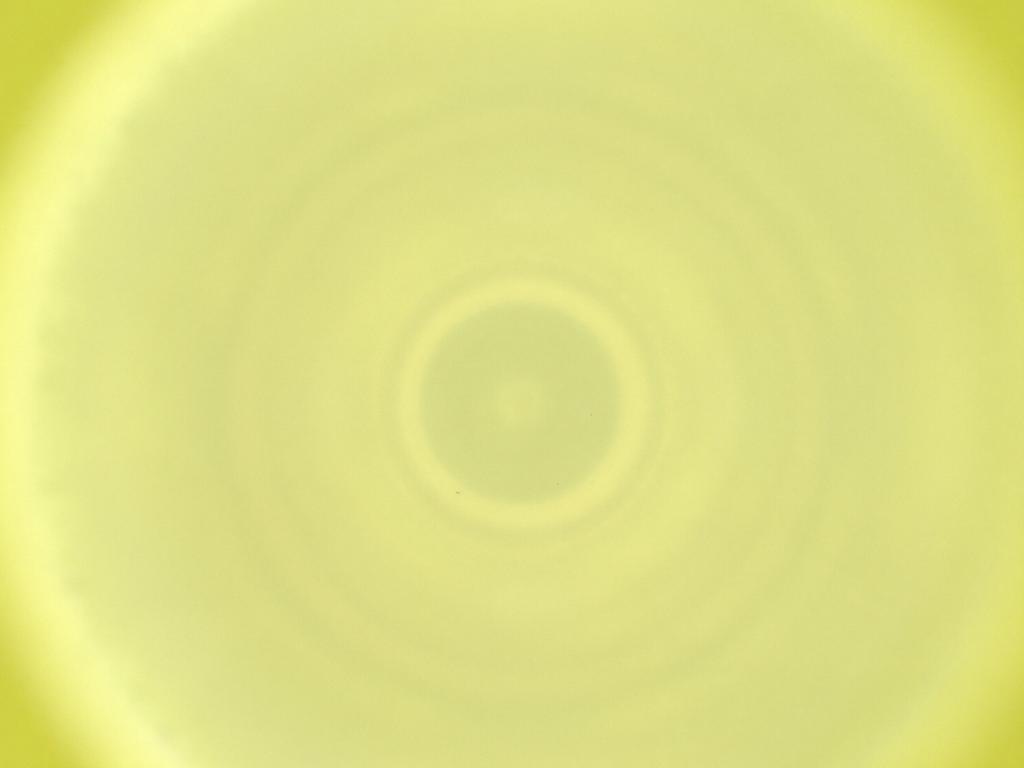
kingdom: Animalia
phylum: Arthropoda
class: Insecta
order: Diptera
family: Cecidomyiidae
